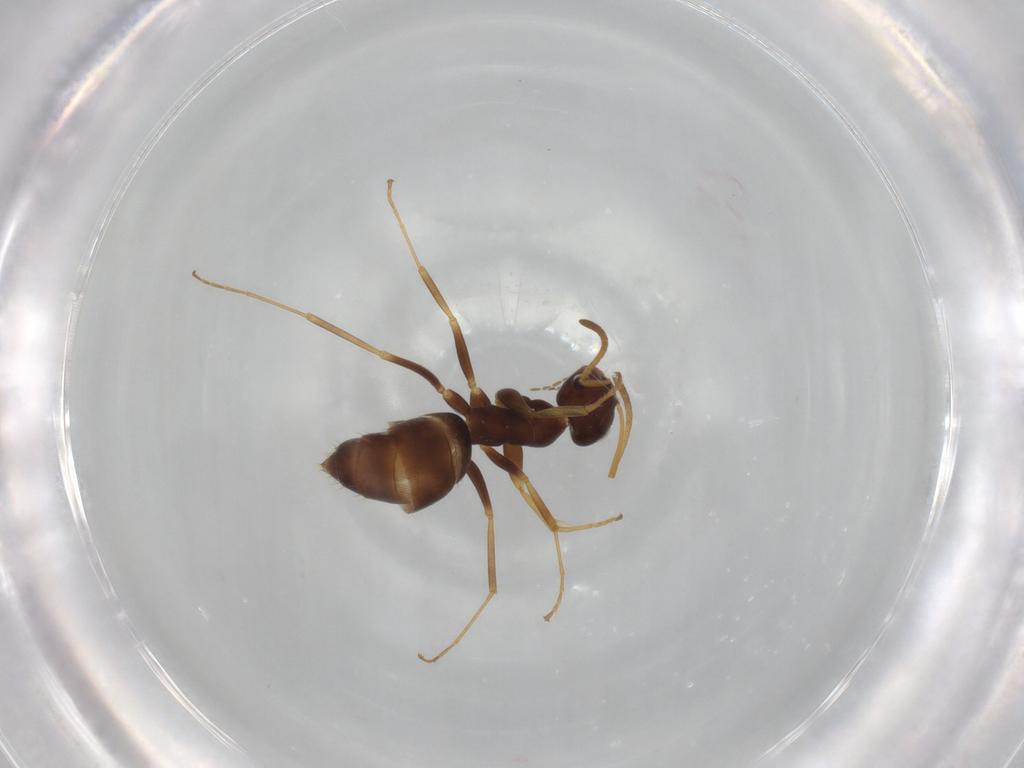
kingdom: Animalia
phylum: Arthropoda
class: Insecta
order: Hymenoptera
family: Formicidae
